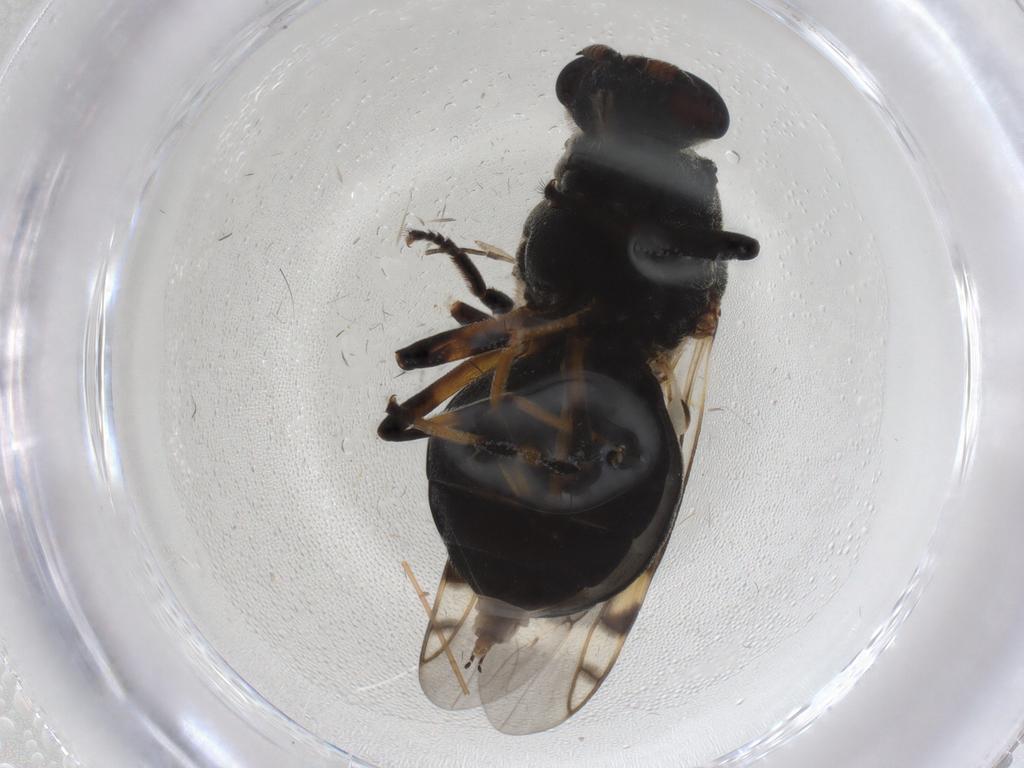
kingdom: Animalia
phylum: Arthropoda
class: Insecta
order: Diptera
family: Stratiomyidae
